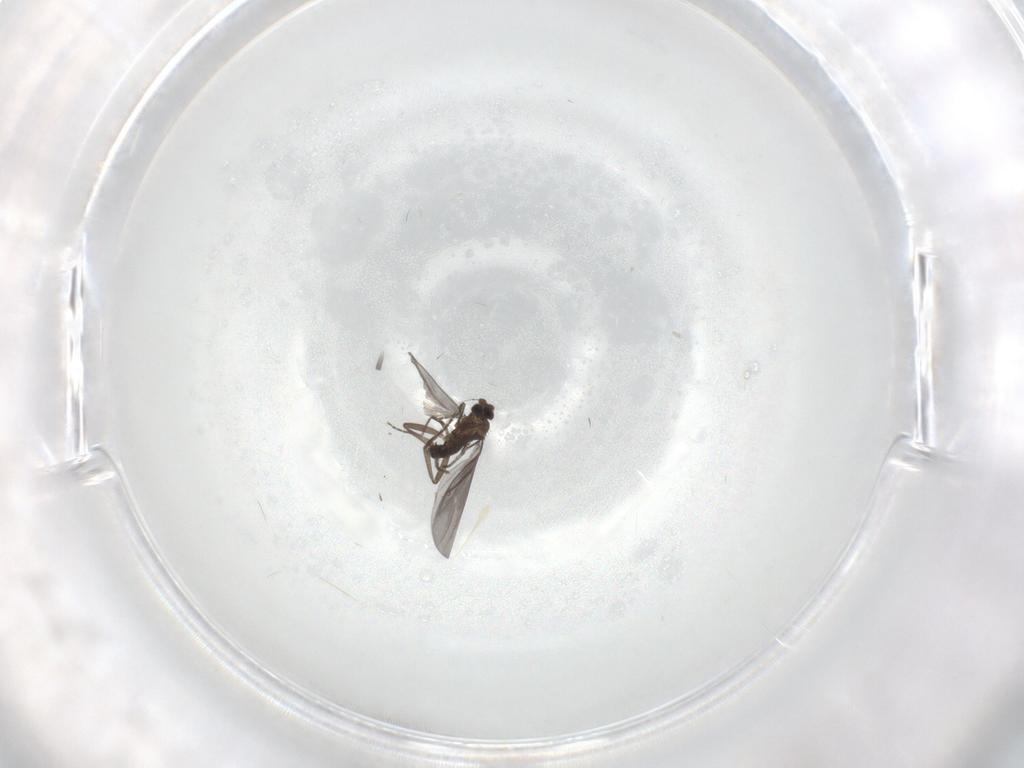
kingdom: Animalia
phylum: Arthropoda
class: Insecta
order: Diptera
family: Phoridae
